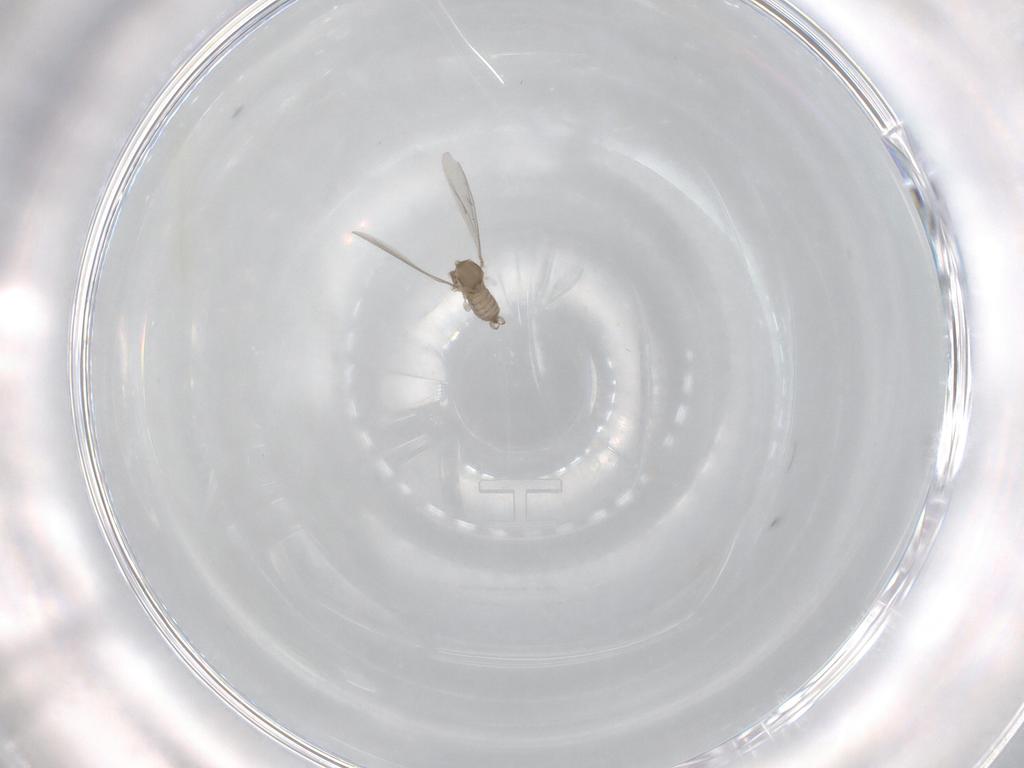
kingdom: Animalia
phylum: Arthropoda
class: Insecta
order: Diptera
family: Cecidomyiidae
